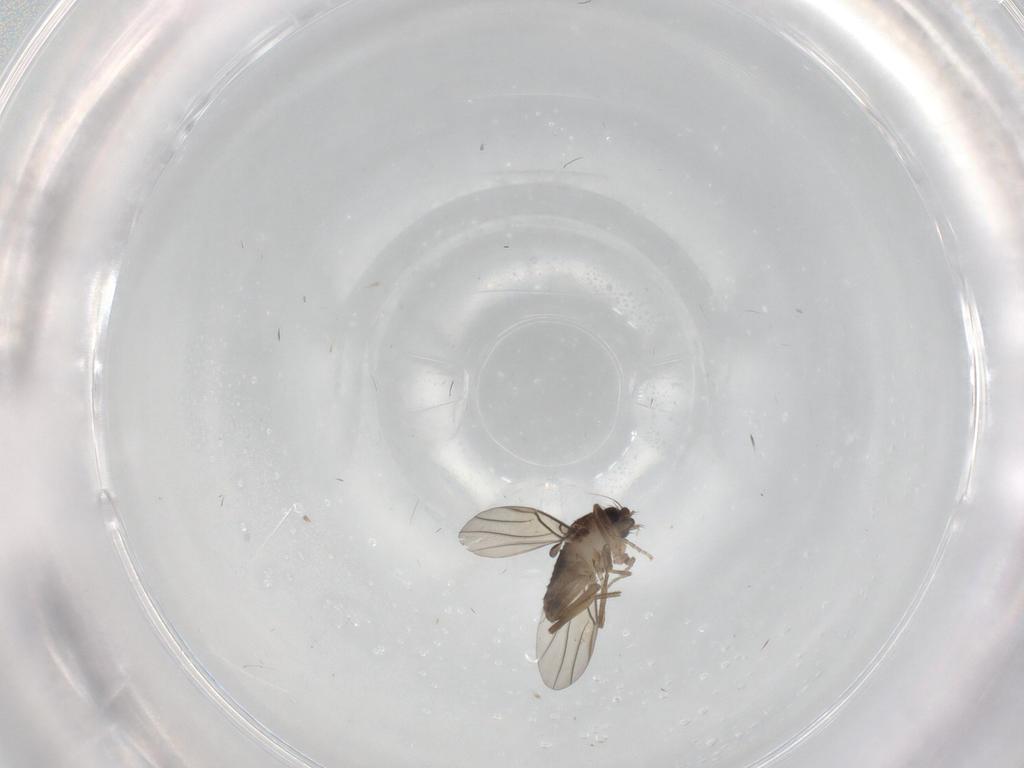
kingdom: Animalia
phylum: Arthropoda
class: Insecta
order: Diptera
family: Phoridae
